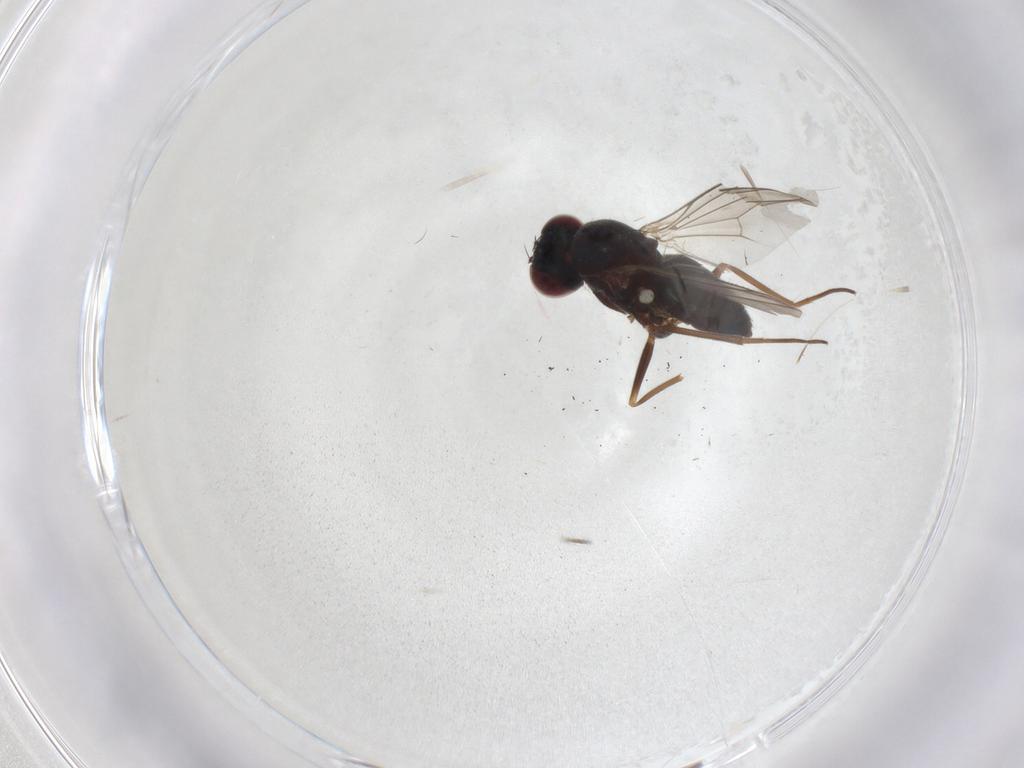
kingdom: Animalia
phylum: Arthropoda
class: Insecta
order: Diptera
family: Dolichopodidae
